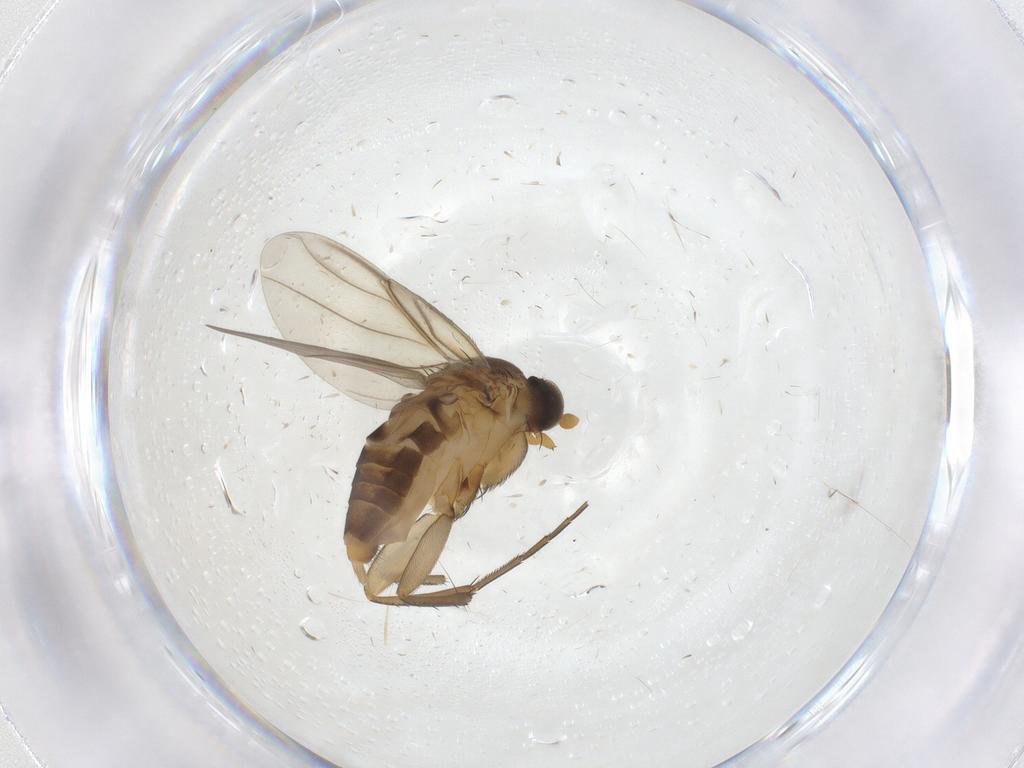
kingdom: Animalia
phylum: Arthropoda
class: Insecta
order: Diptera
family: Phoridae
